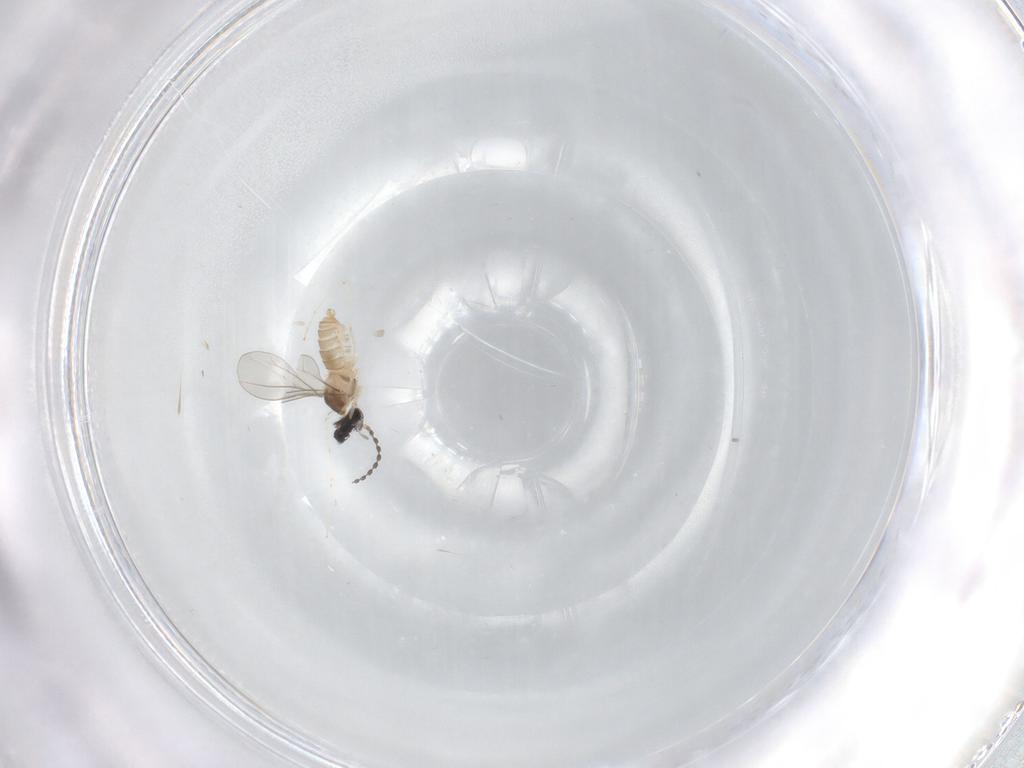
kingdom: Animalia
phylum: Arthropoda
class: Insecta
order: Diptera
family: Cecidomyiidae
